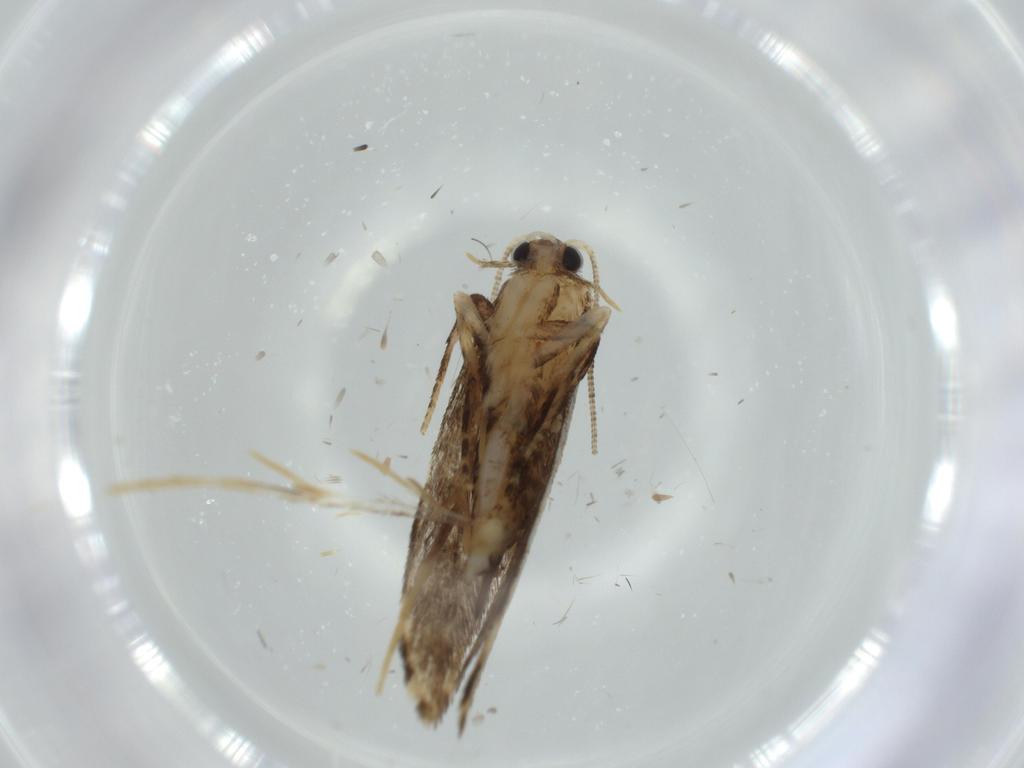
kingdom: Animalia
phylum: Arthropoda
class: Insecta
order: Lepidoptera
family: Tineidae
